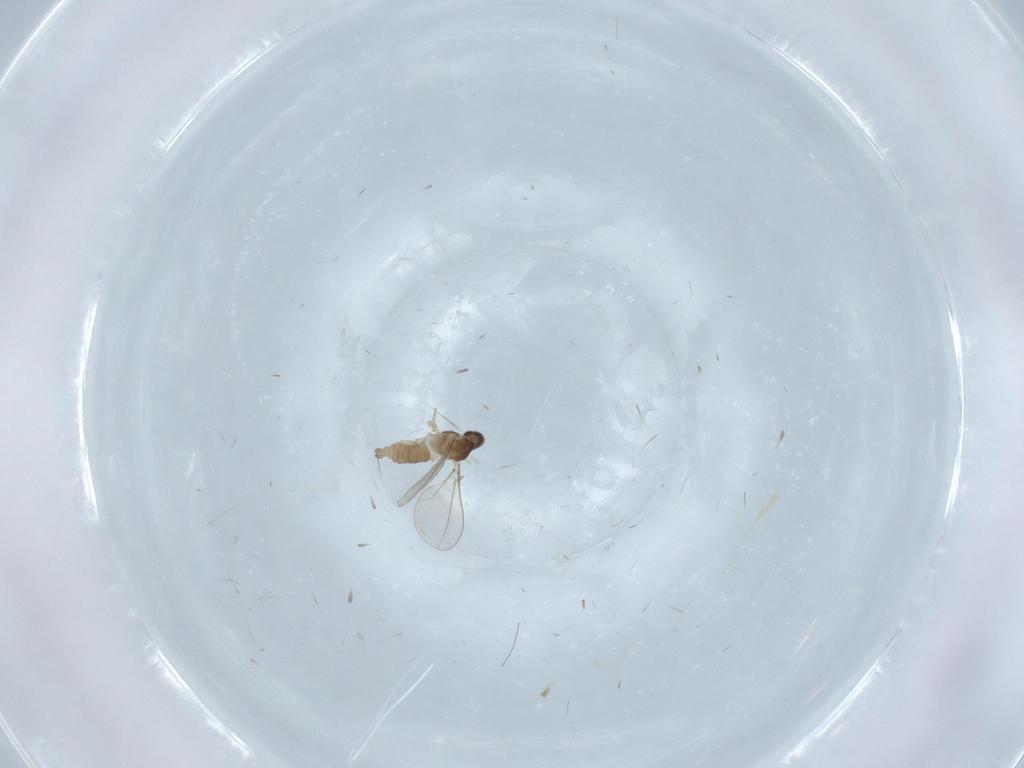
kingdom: Animalia
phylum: Arthropoda
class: Insecta
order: Diptera
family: Cecidomyiidae
